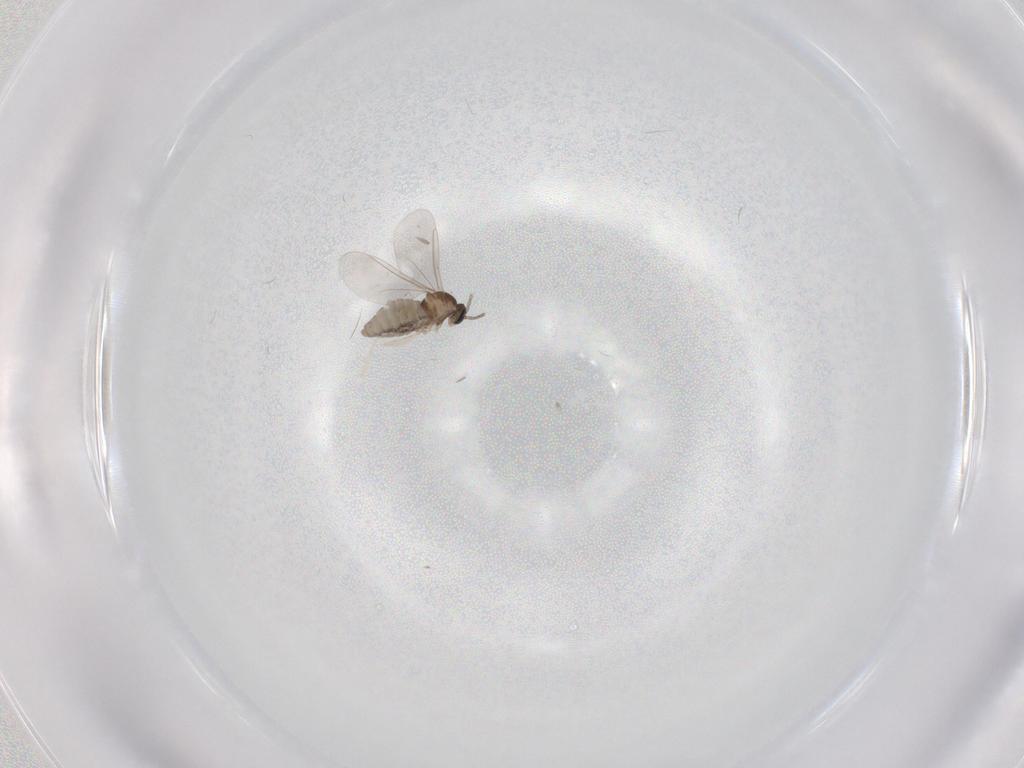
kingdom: Animalia
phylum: Arthropoda
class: Insecta
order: Diptera
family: Cecidomyiidae
